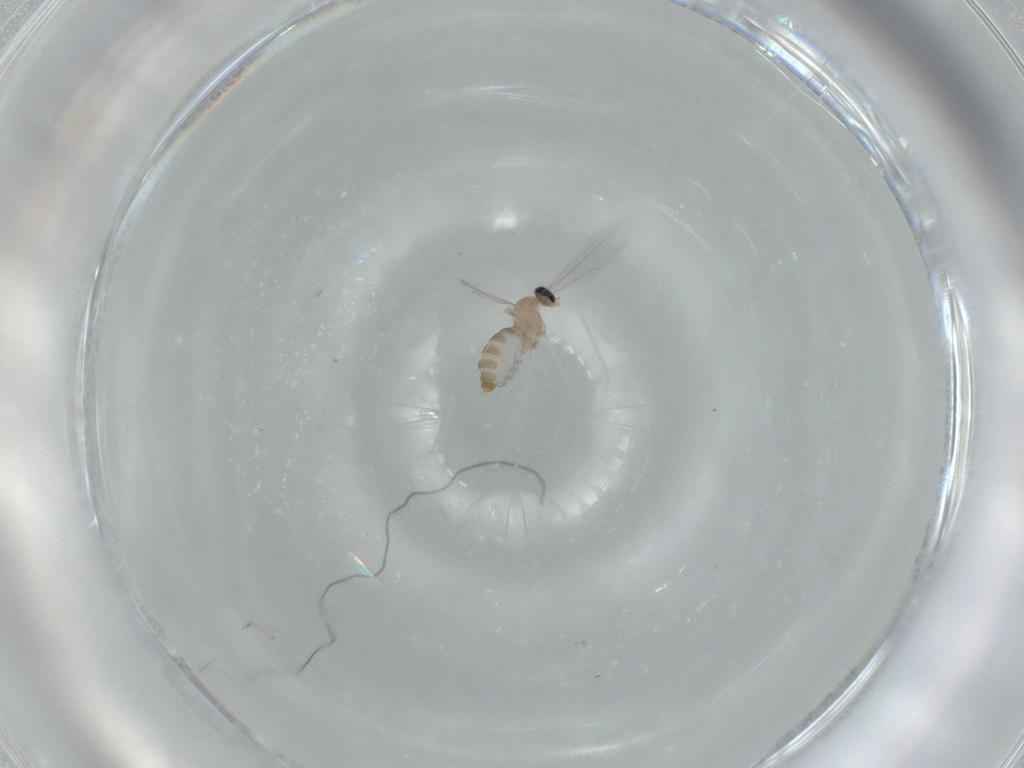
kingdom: Animalia
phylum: Arthropoda
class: Insecta
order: Diptera
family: Cecidomyiidae
